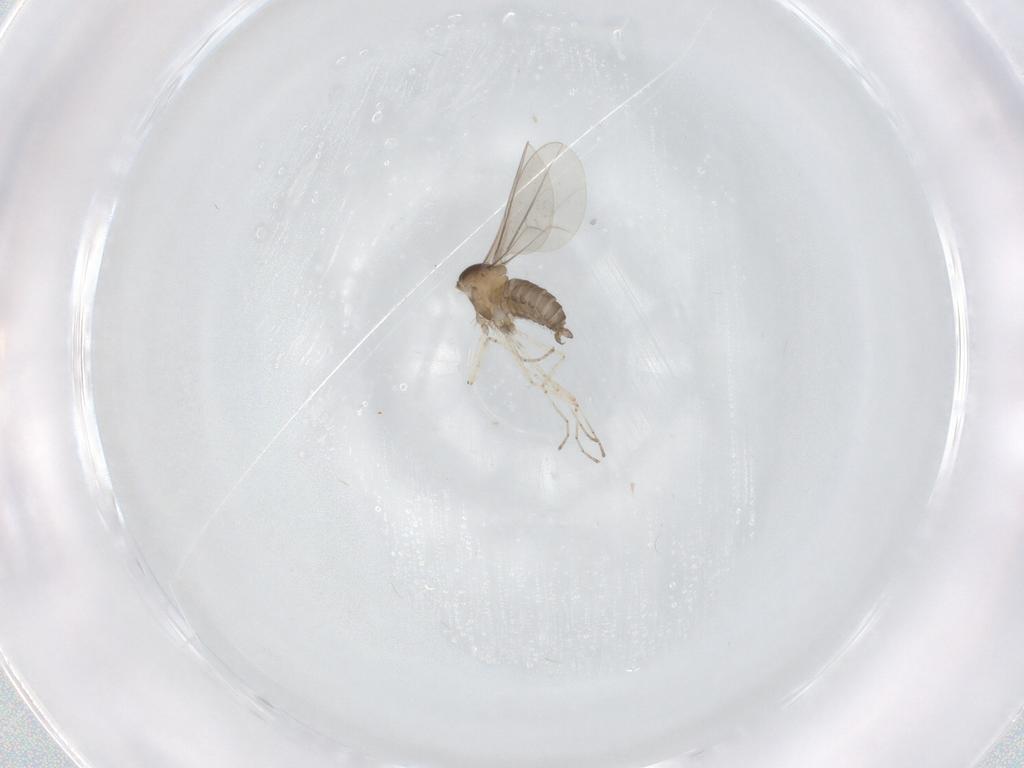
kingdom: Animalia
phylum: Arthropoda
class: Insecta
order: Diptera
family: Cecidomyiidae
